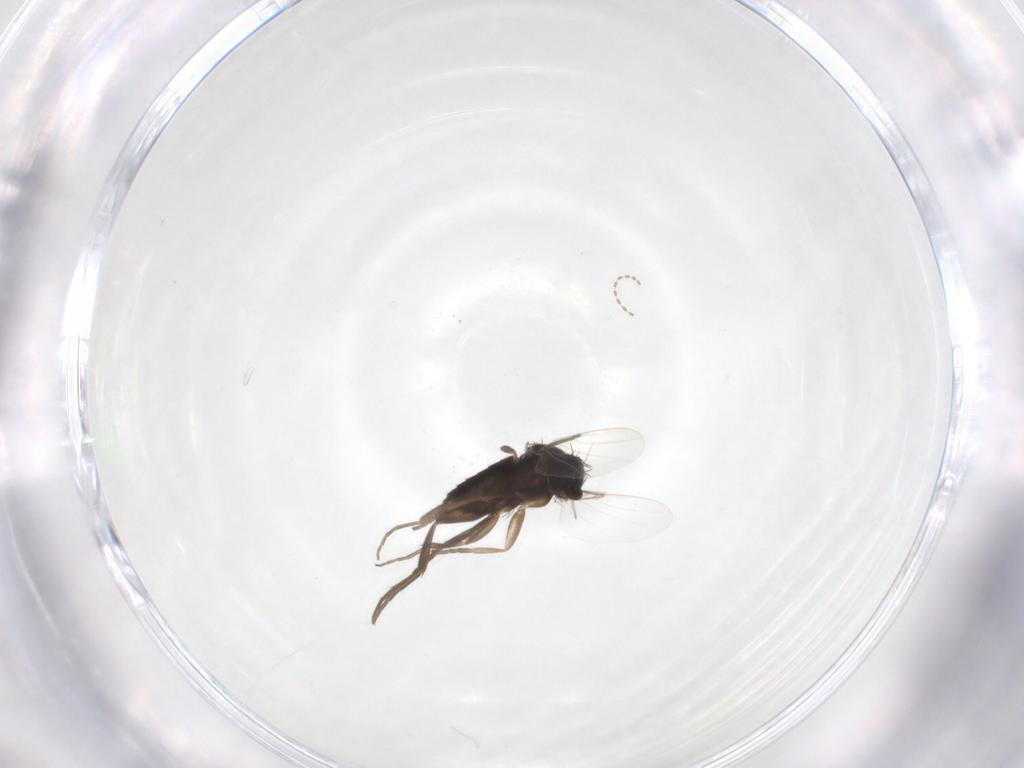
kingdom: Animalia
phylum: Arthropoda
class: Insecta
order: Diptera
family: Phoridae
